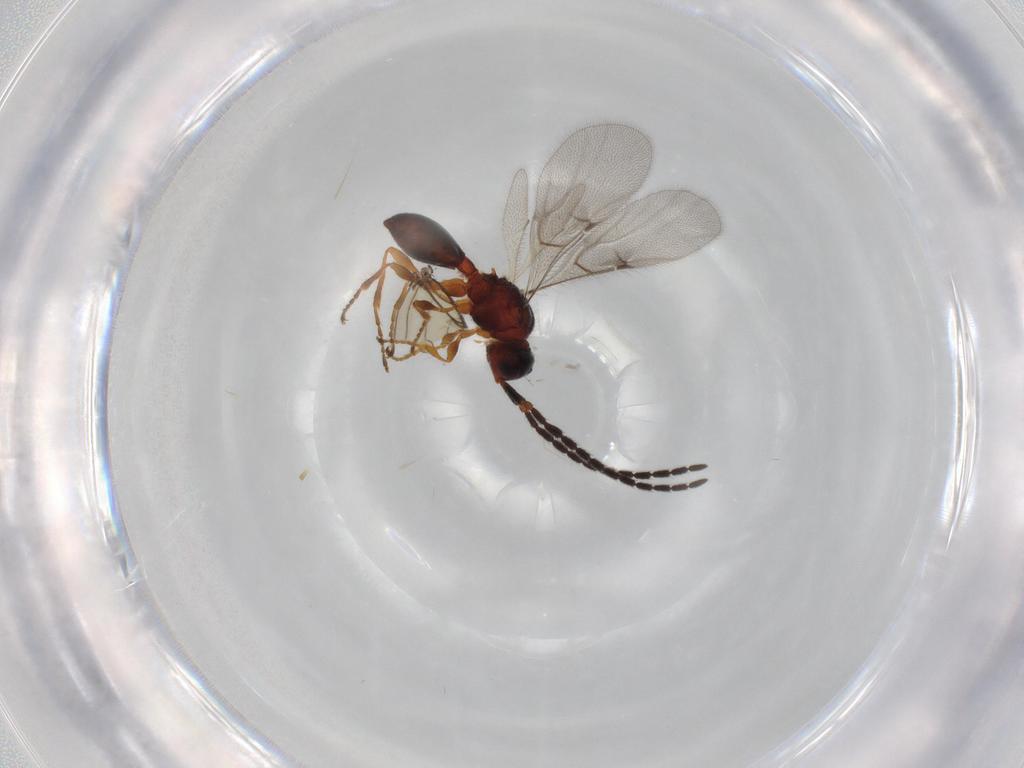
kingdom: Animalia
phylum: Arthropoda
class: Insecta
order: Hymenoptera
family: Diapriidae
